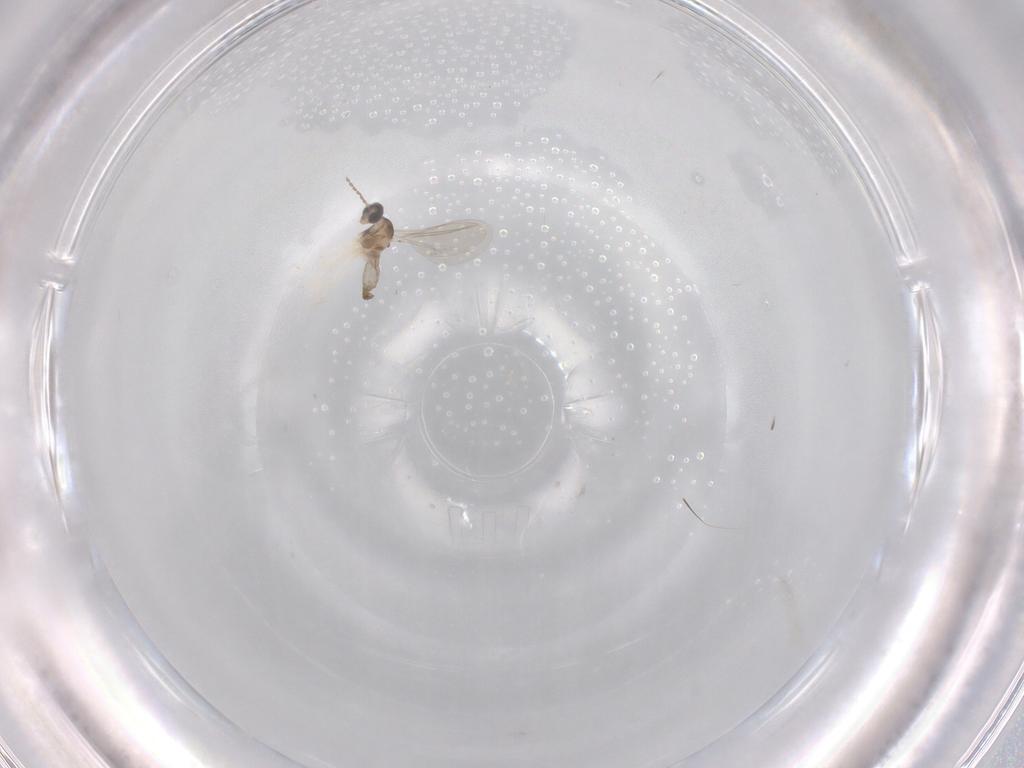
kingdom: Animalia
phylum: Arthropoda
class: Insecta
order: Diptera
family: Cecidomyiidae
